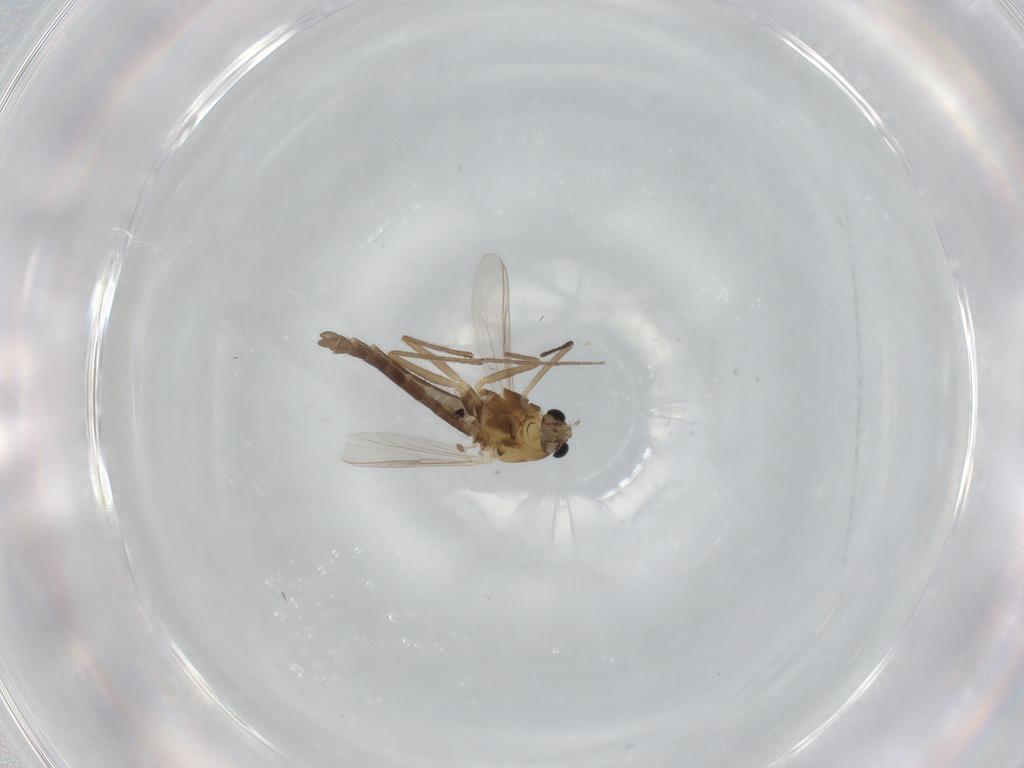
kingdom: Animalia
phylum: Arthropoda
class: Insecta
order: Diptera
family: Chironomidae
